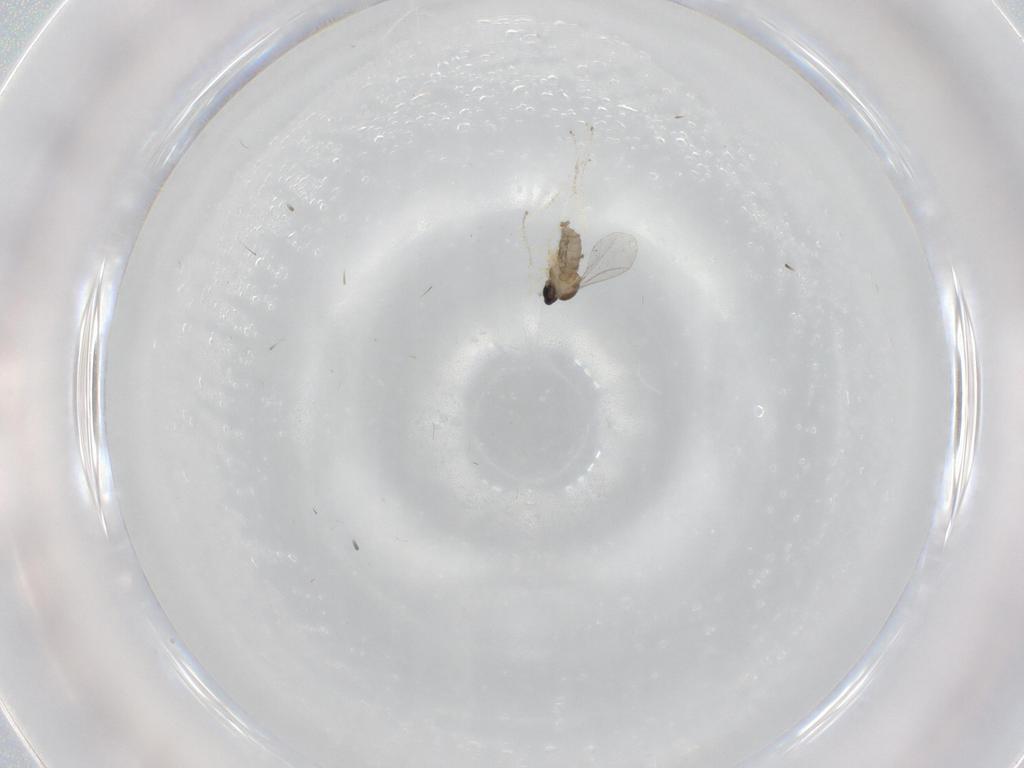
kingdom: Animalia
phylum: Arthropoda
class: Insecta
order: Diptera
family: Cecidomyiidae
